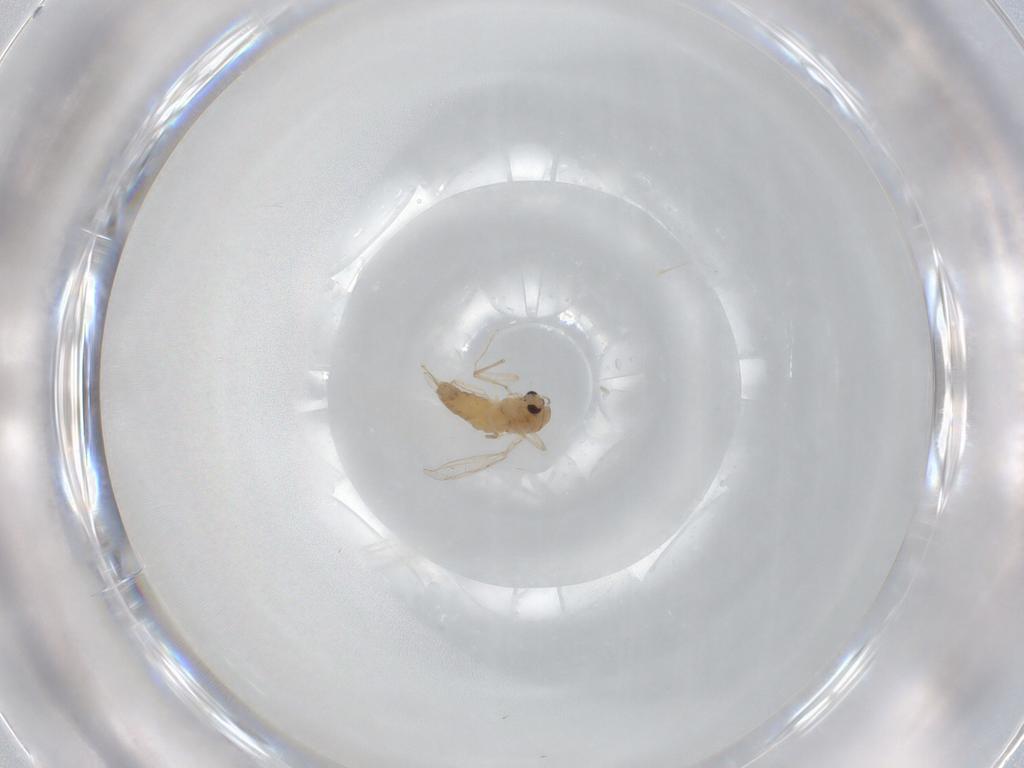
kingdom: Animalia
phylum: Arthropoda
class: Insecta
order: Diptera
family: Chironomidae
